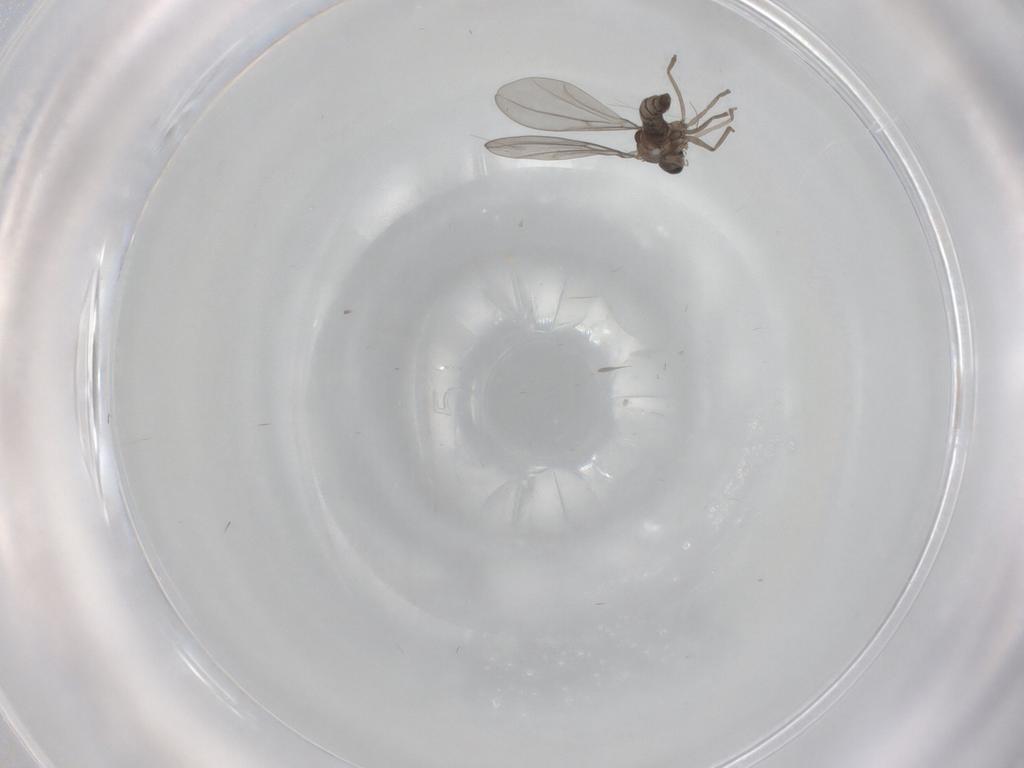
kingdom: Animalia
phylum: Arthropoda
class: Insecta
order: Diptera
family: Cecidomyiidae
